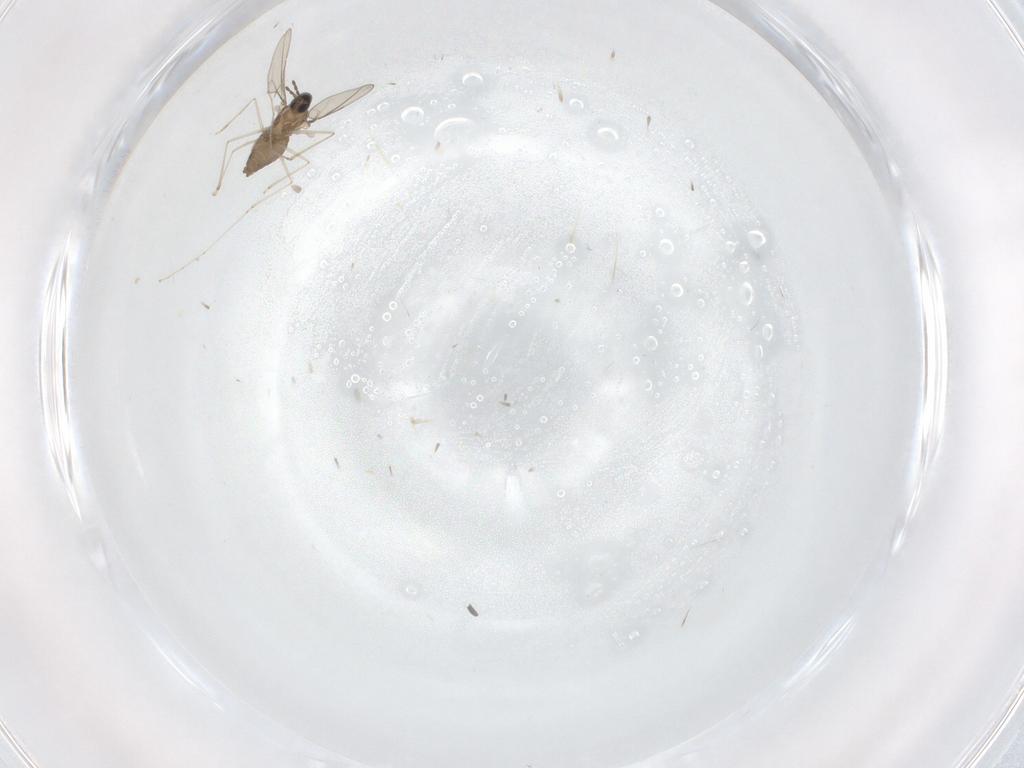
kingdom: Animalia
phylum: Arthropoda
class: Insecta
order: Diptera
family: Cecidomyiidae
